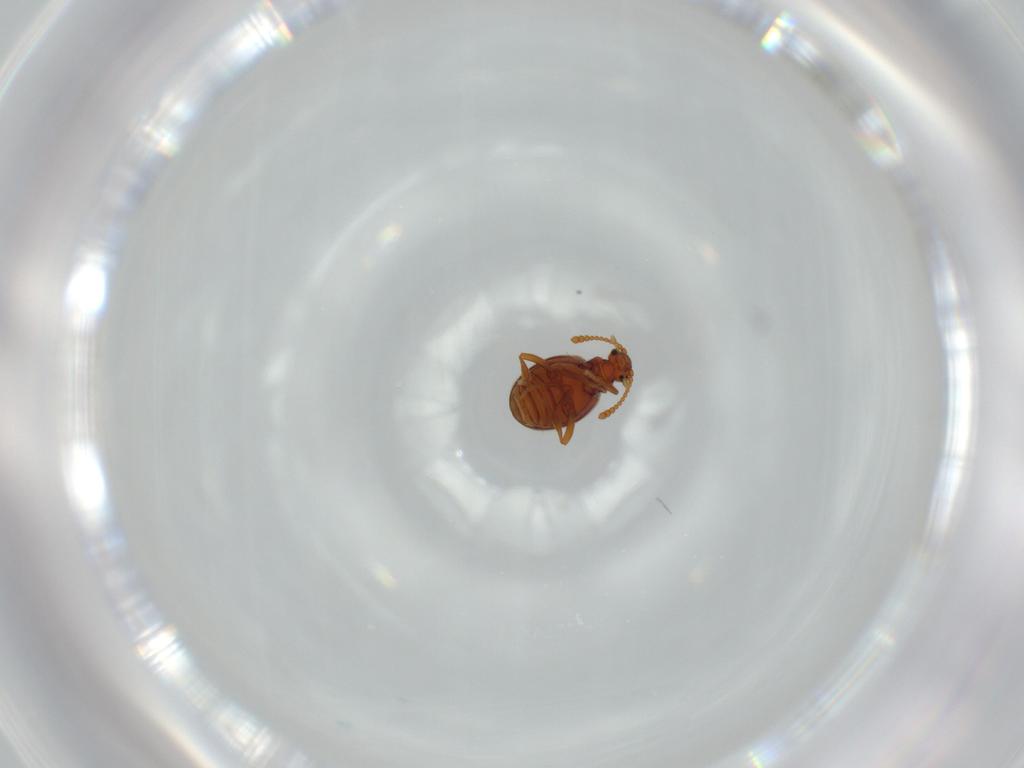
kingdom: Animalia
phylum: Arthropoda
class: Insecta
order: Coleoptera
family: Aderidae
